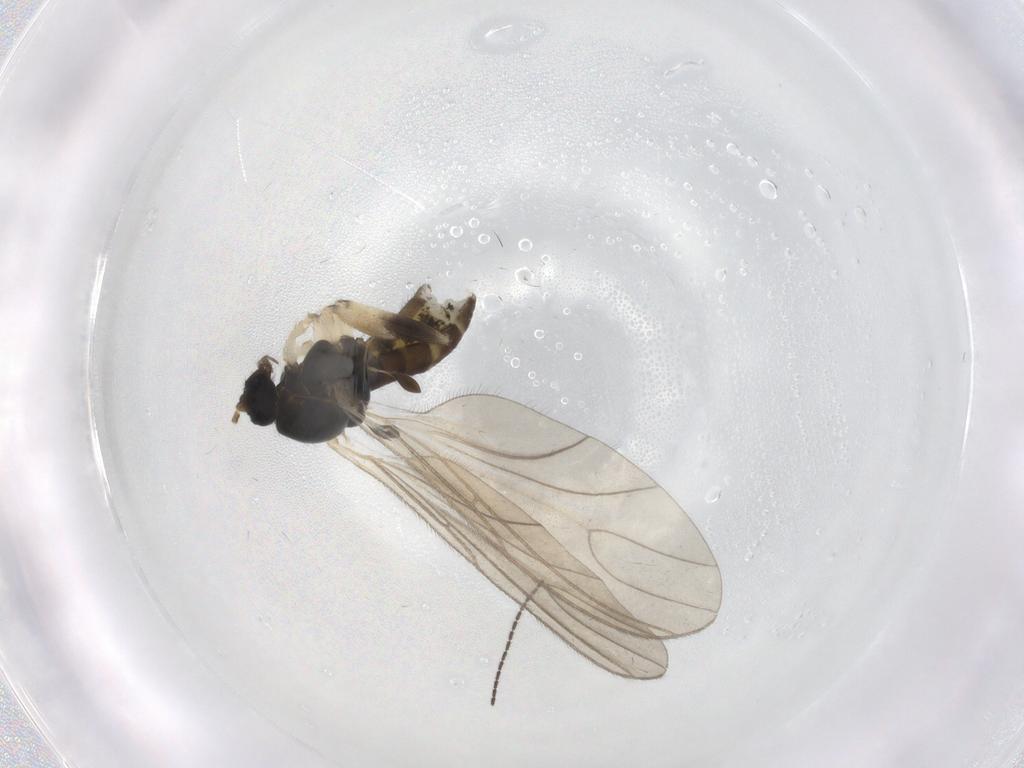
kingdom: Animalia
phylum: Arthropoda
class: Insecta
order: Diptera
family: Sciaridae
